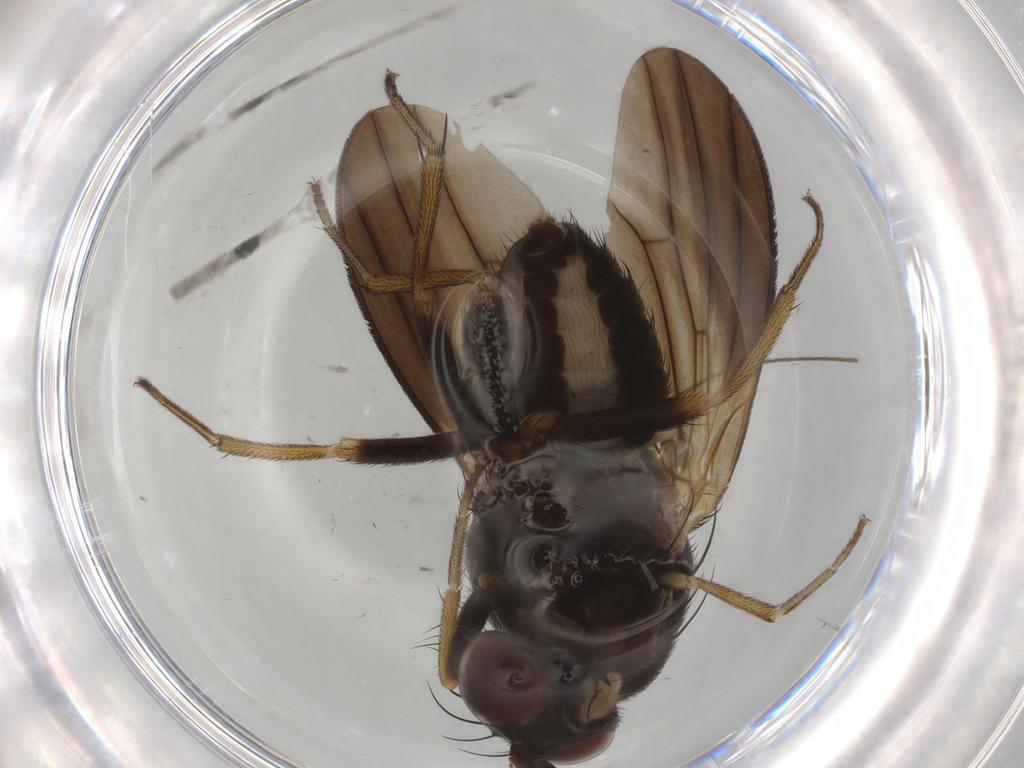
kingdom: Animalia
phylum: Arthropoda
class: Insecta
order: Diptera
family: Sciaridae
